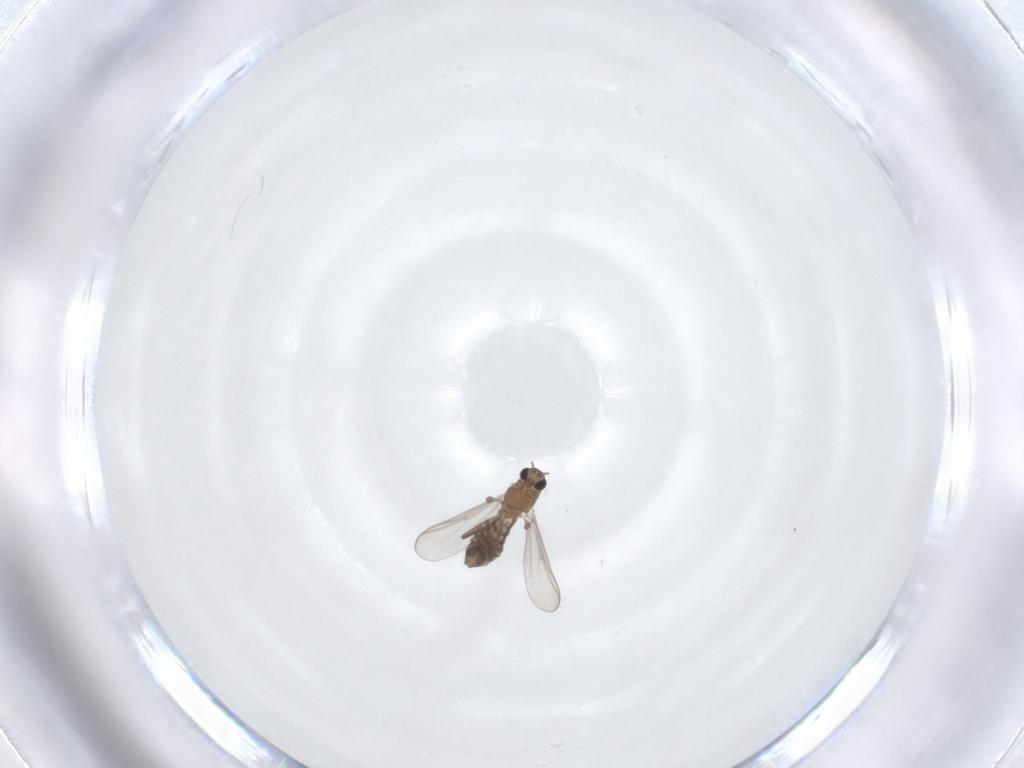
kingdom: Animalia
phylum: Arthropoda
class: Insecta
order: Diptera
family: Chironomidae
